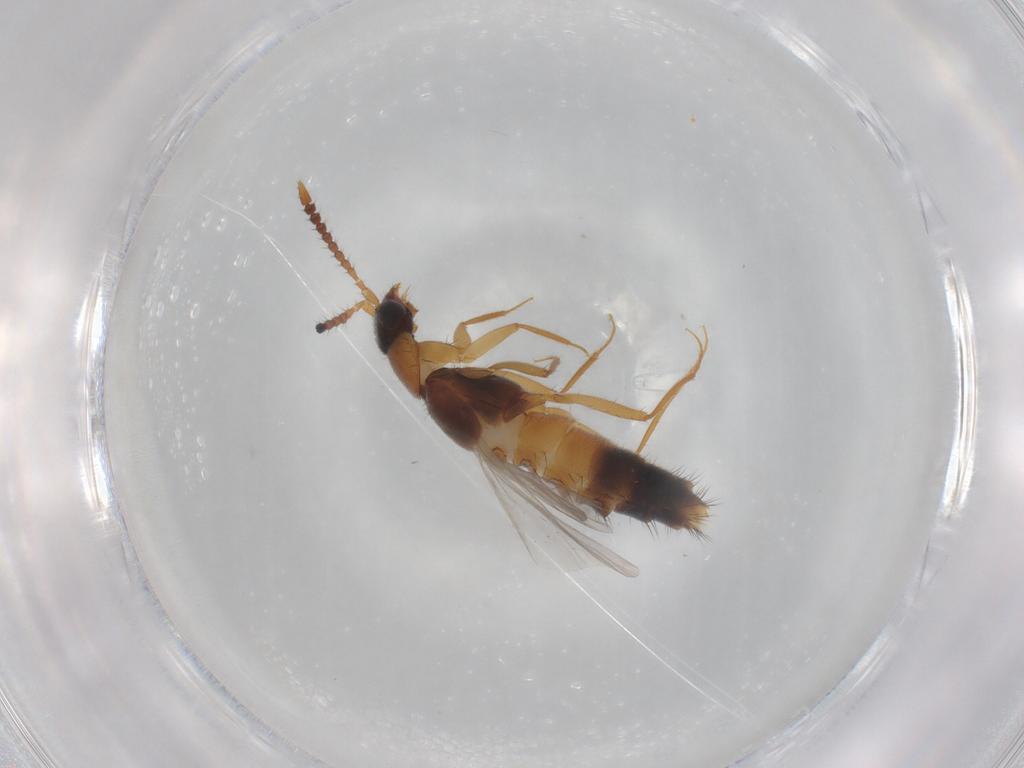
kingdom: Animalia
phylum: Arthropoda
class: Insecta
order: Coleoptera
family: Staphylinidae
